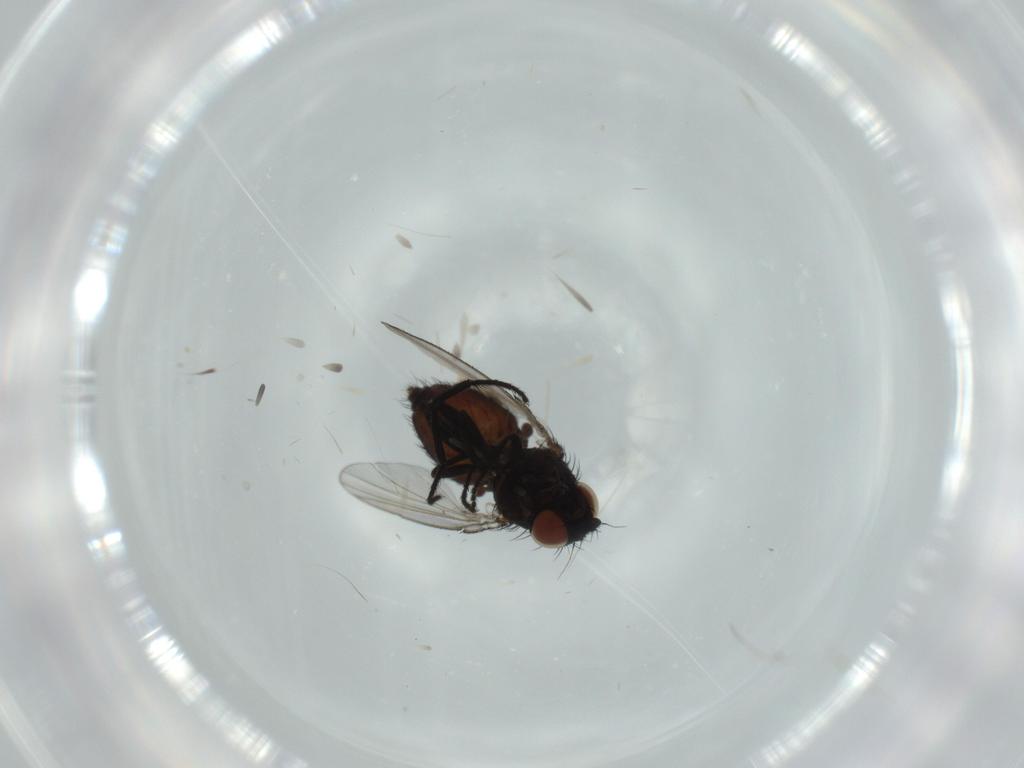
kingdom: Animalia
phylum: Arthropoda
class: Insecta
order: Diptera
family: Milichiidae
